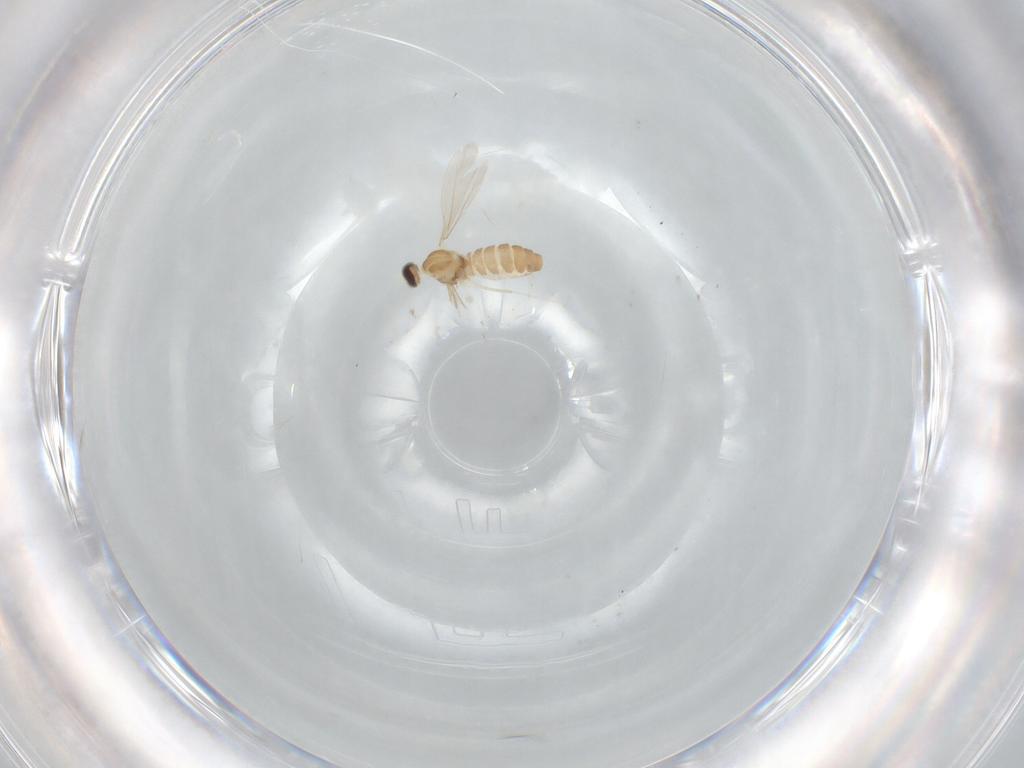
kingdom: Animalia
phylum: Arthropoda
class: Insecta
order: Diptera
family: Cecidomyiidae
